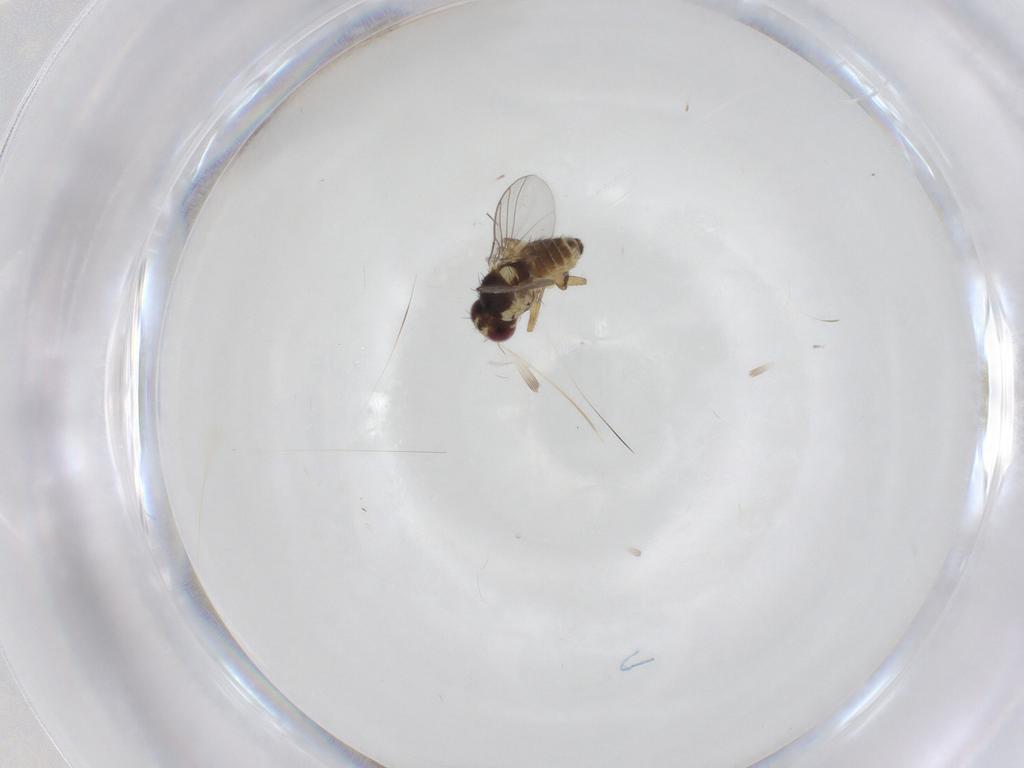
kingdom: Animalia
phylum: Arthropoda
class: Insecta
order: Diptera
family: Agromyzidae
